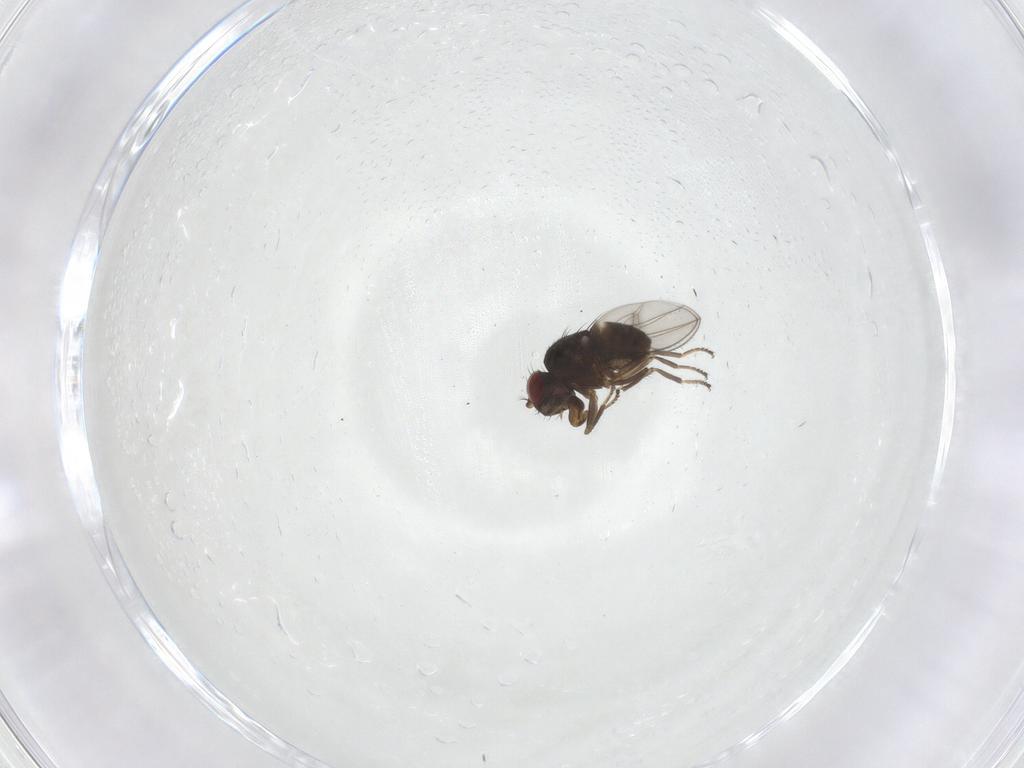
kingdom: Animalia
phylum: Arthropoda
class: Insecta
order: Diptera
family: Ephydridae
